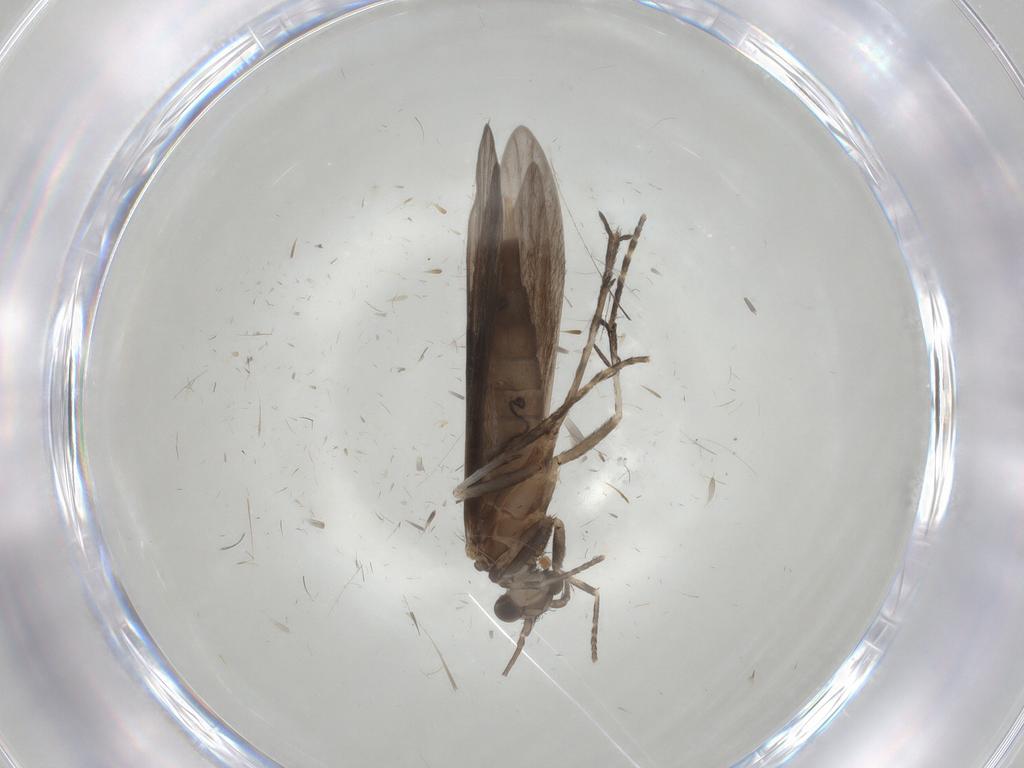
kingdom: Animalia
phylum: Arthropoda
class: Insecta
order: Trichoptera
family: Xiphocentronidae
